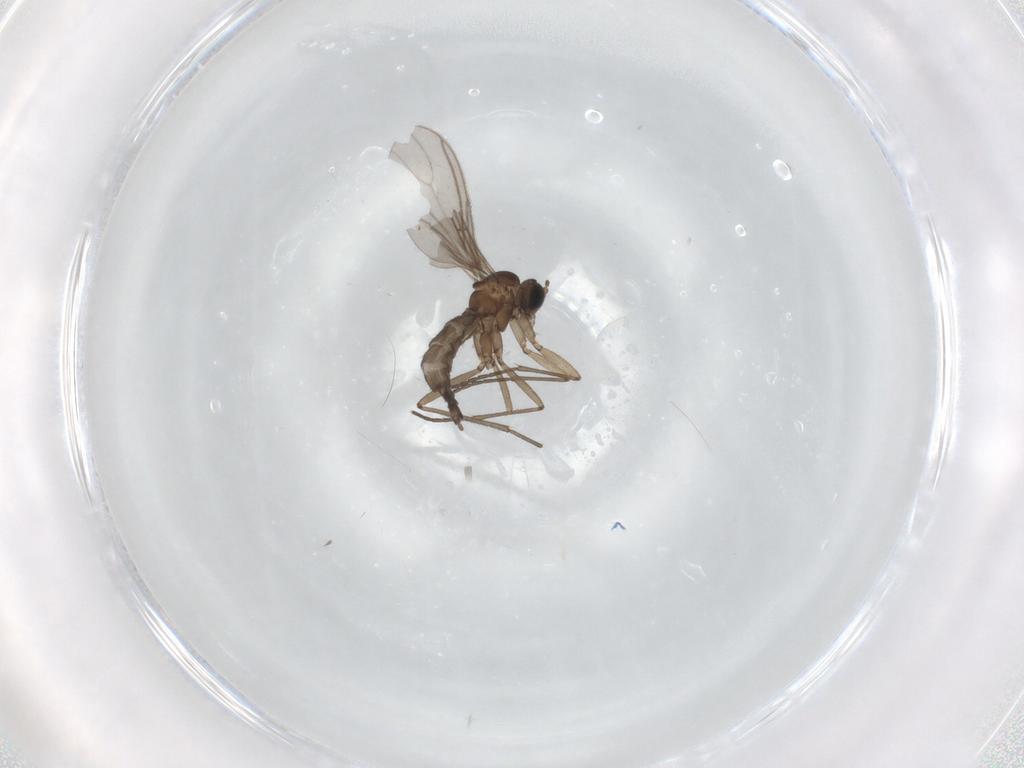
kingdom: Animalia
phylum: Arthropoda
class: Insecta
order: Diptera
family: Sciaridae
